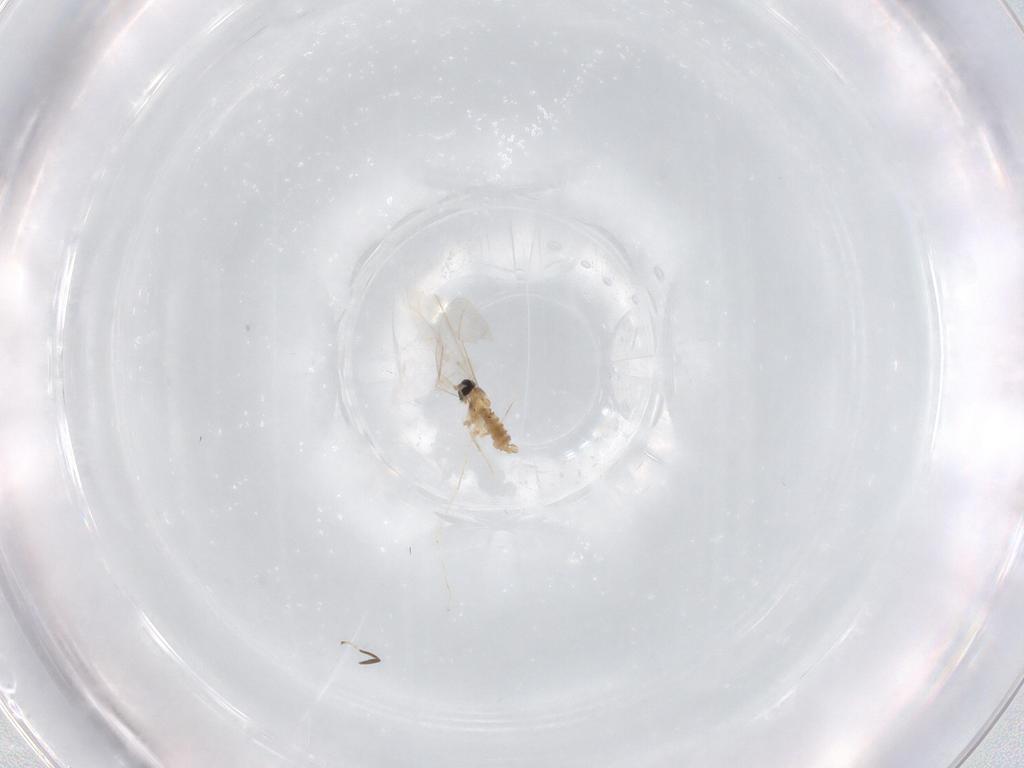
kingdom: Animalia
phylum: Arthropoda
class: Insecta
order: Diptera
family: Cecidomyiidae
